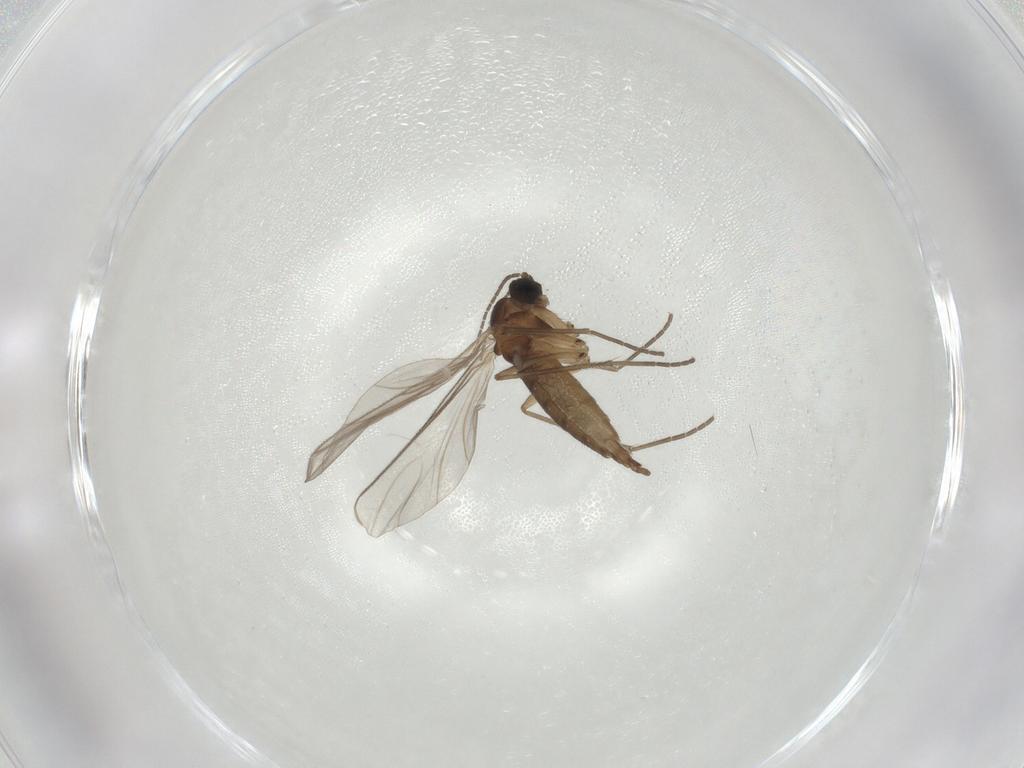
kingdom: Animalia
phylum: Arthropoda
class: Insecta
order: Diptera
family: Sciaridae
